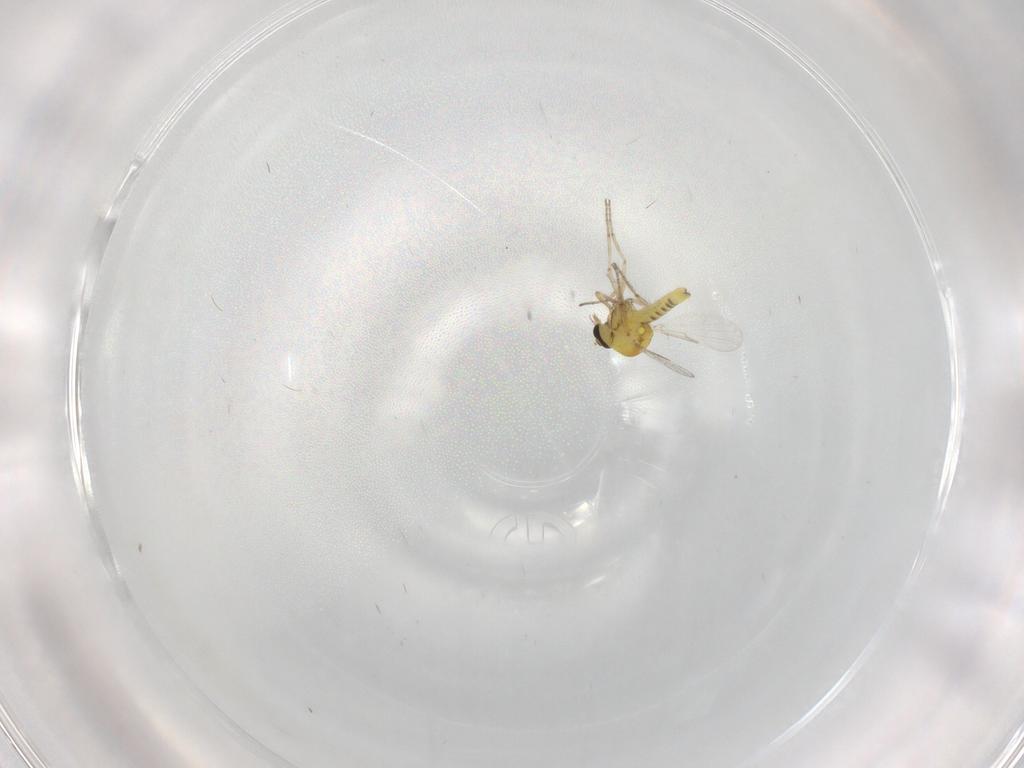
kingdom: Animalia
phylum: Arthropoda
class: Insecta
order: Diptera
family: Ceratopogonidae
